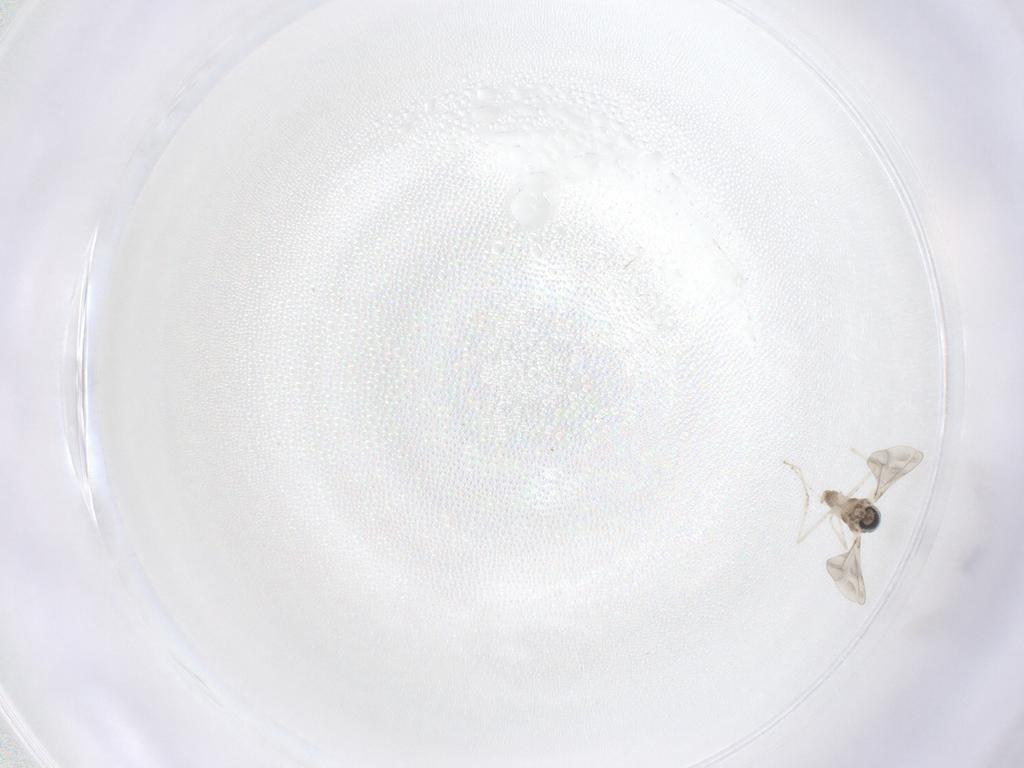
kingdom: Animalia
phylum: Arthropoda
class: Insecta
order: Diptera
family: Cecidomyiidae
